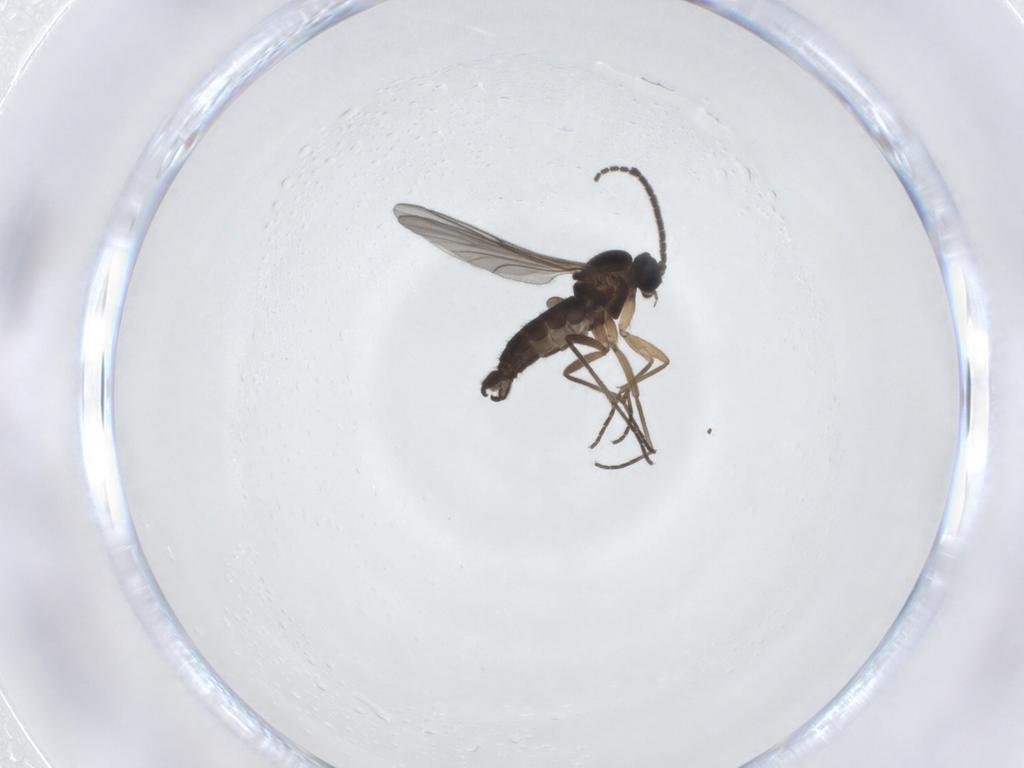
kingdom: Animalia
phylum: Arthropoda
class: Insecta
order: Diptera
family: Sciaridae
